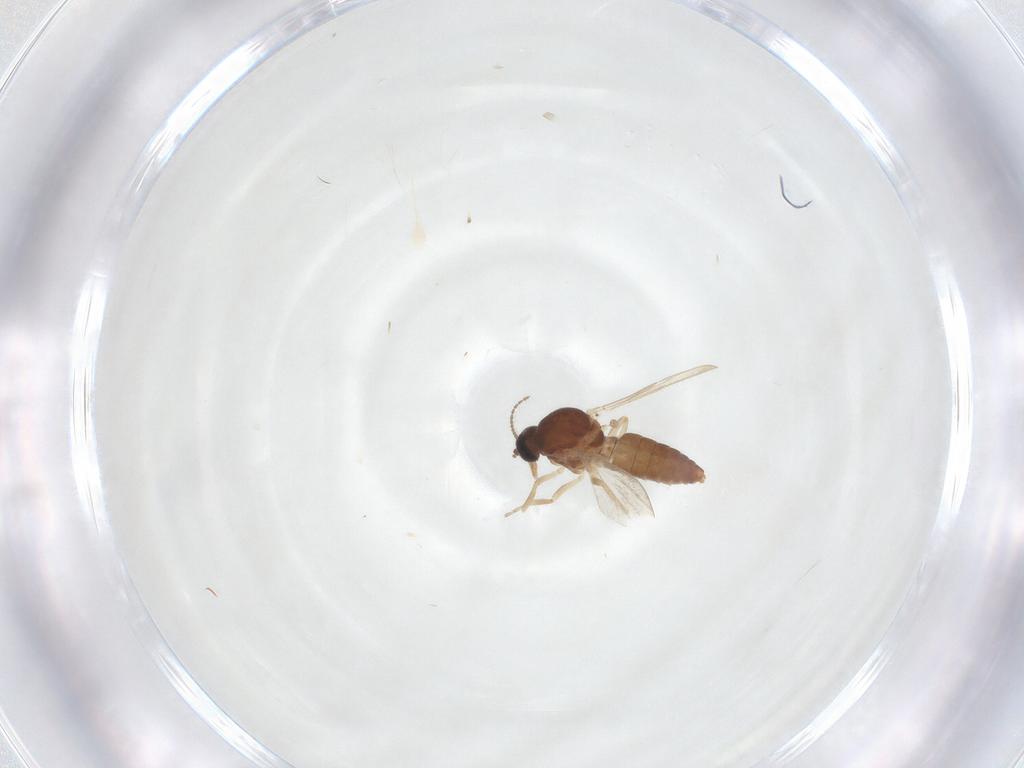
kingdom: Animalia
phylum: Arthropoda
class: Insecta
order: Diptera
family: Ceratopogonidae
